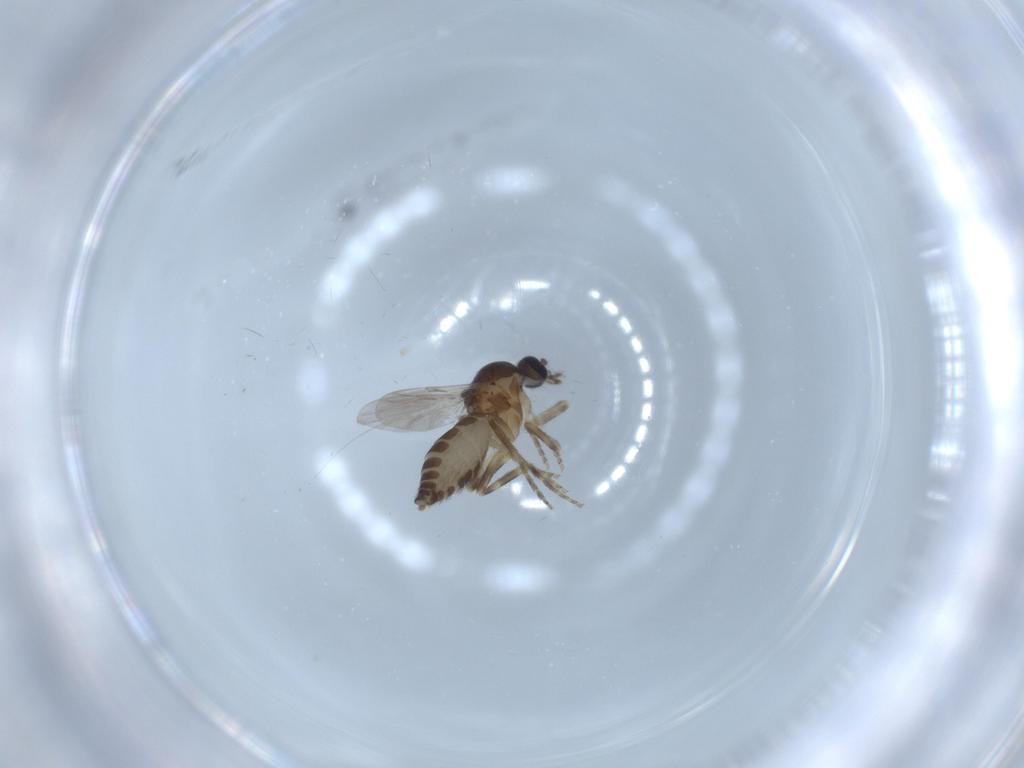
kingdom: Animalia
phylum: Arthropoda
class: Insecta
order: Diptera
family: Ceratopogonidae
